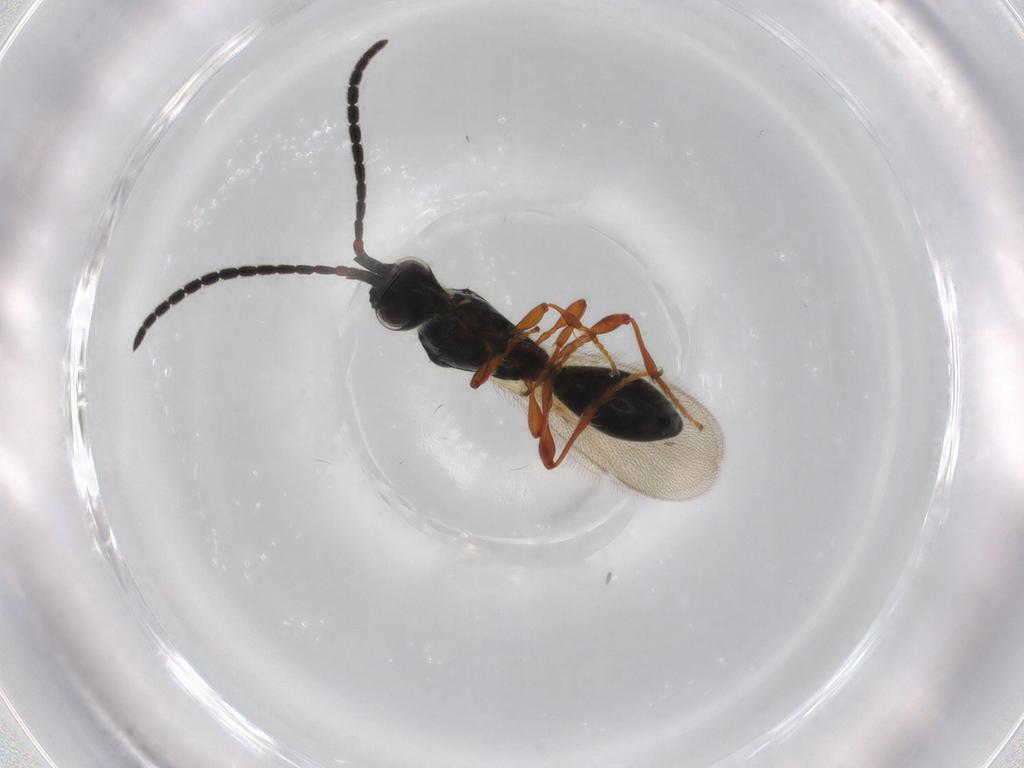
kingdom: Animalia
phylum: Arthropoda
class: Insecta
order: Hymenoptera
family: Diapriidae
